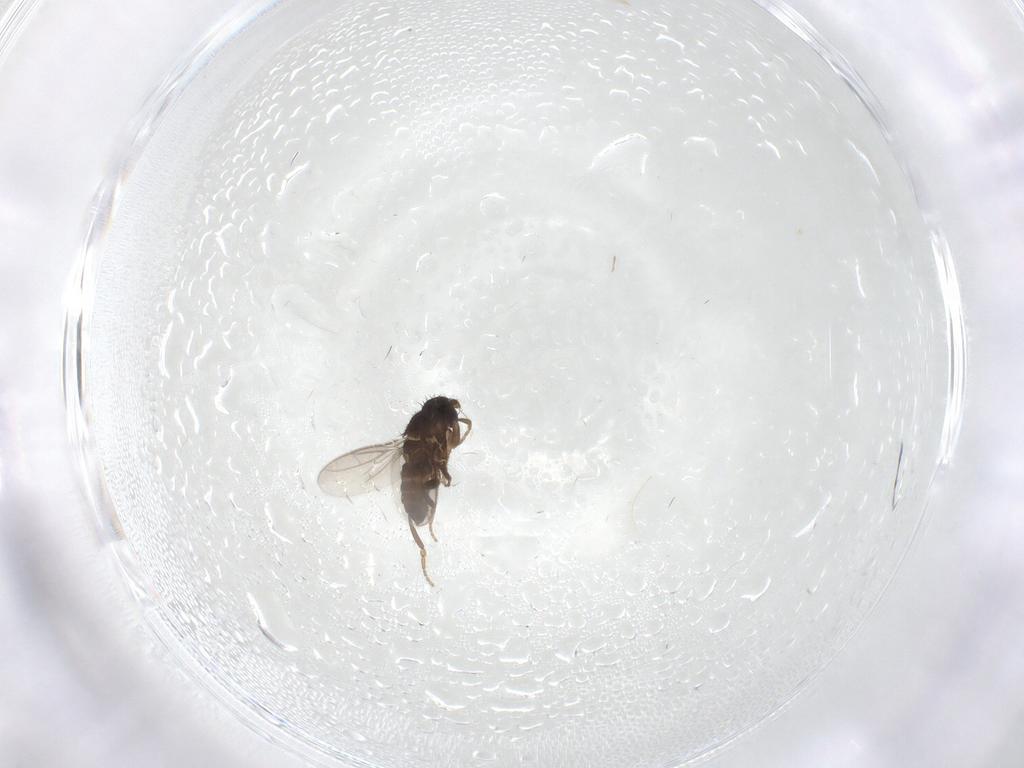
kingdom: Animalia
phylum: Arthropoda
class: Insecta
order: Diptera
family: Cecidomyiidae
